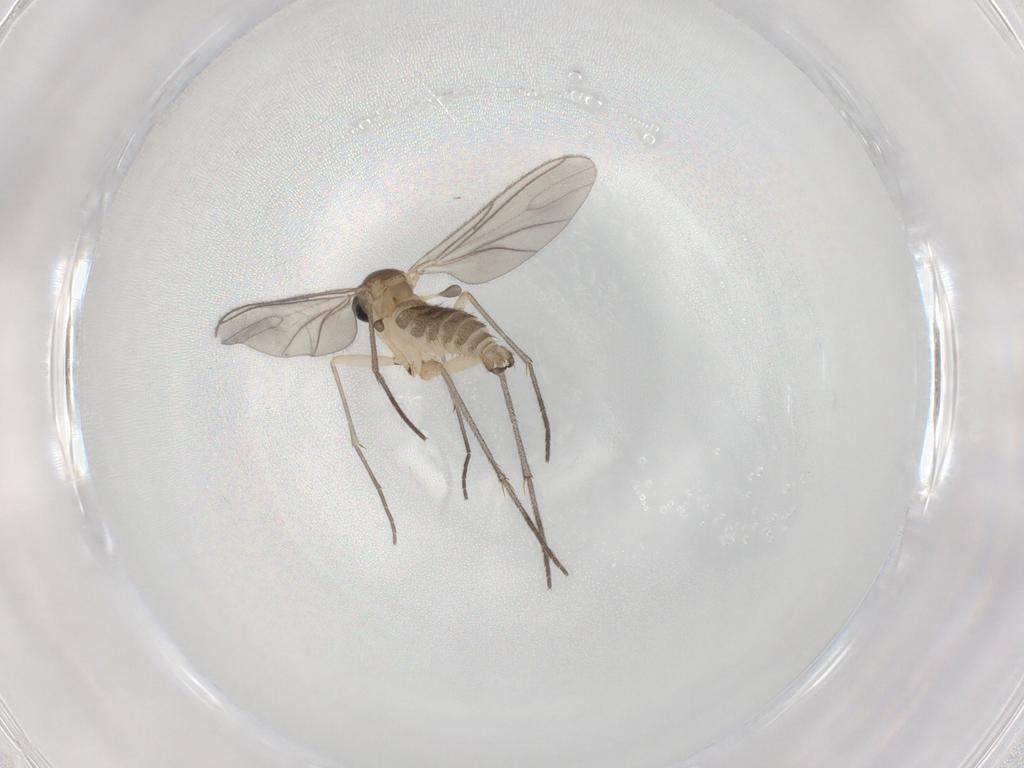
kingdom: Animalia
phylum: Arthropoda
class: Insecta
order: Diptera
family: Sciaridae
